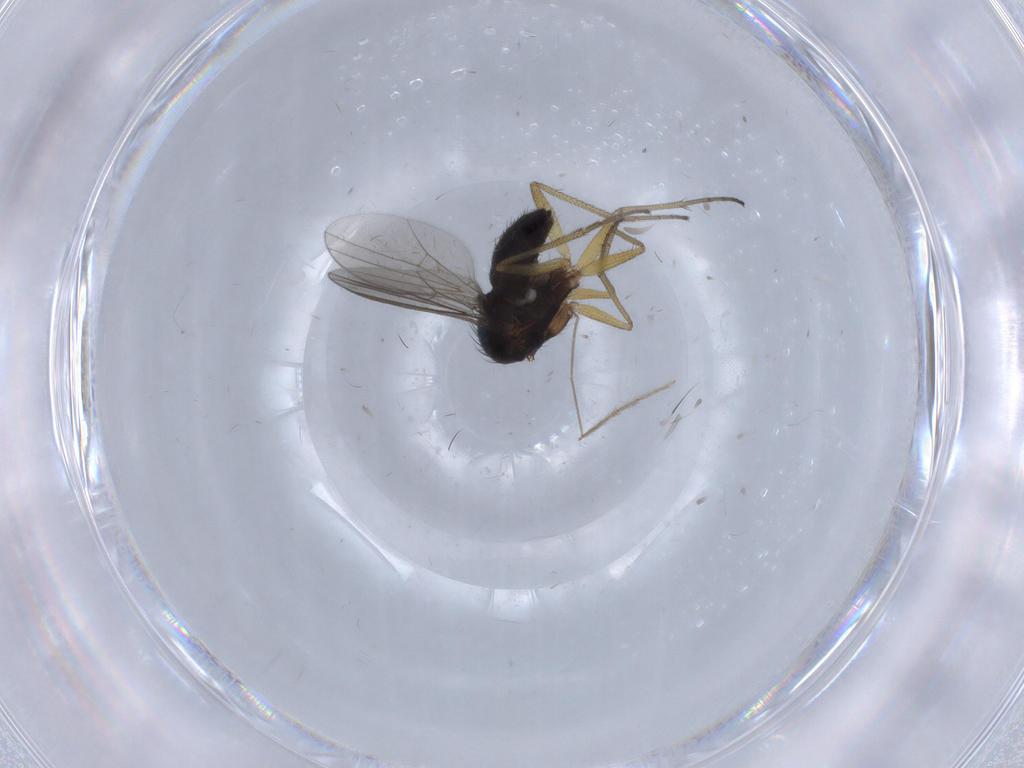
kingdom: Animalia
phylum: Arthropoda
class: Insecta
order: Diptera
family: Dolichopodidae
